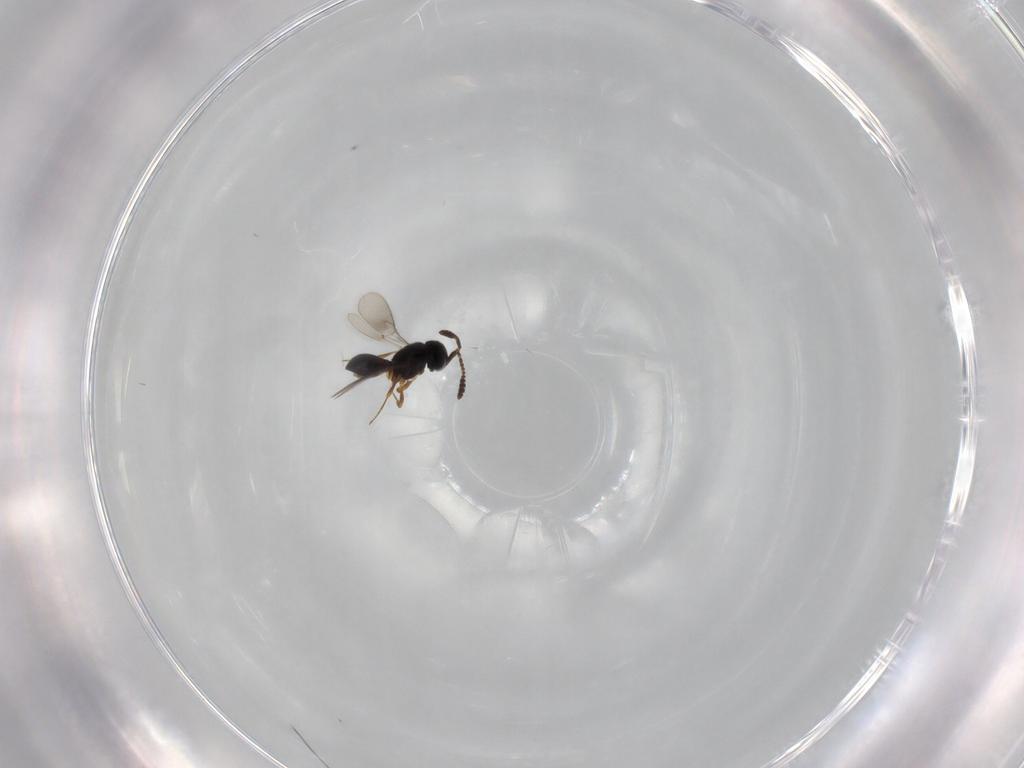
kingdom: Animalia
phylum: Arthropoda
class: Insecta
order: Hymenoptera
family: Scelionidae
